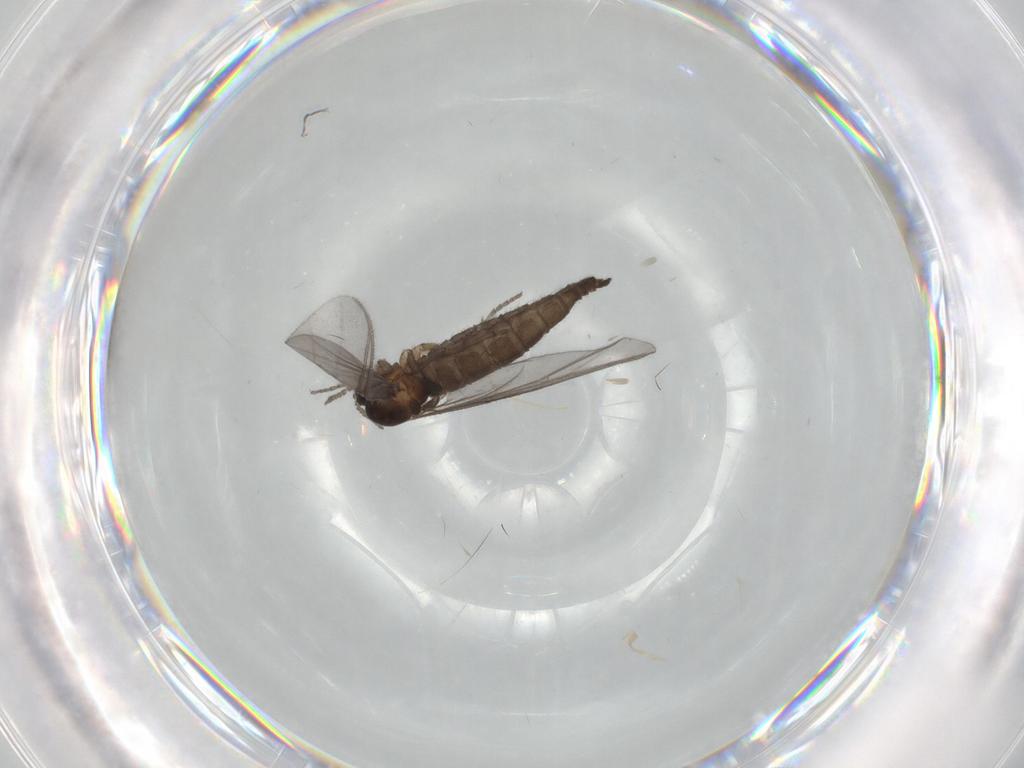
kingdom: Animalia
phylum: Arthropoda
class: Insecta
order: Diptera
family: Sciaridae
